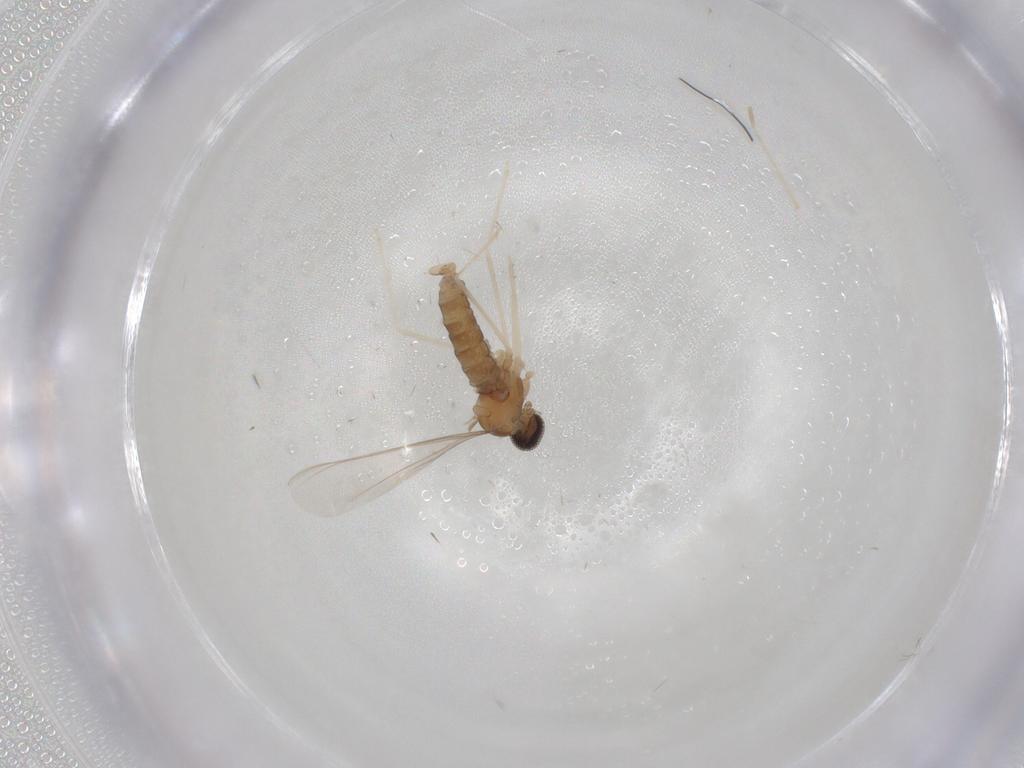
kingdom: Animalia
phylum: Arthropoda
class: Insecta
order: Diptera
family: Cecidomyiidae
